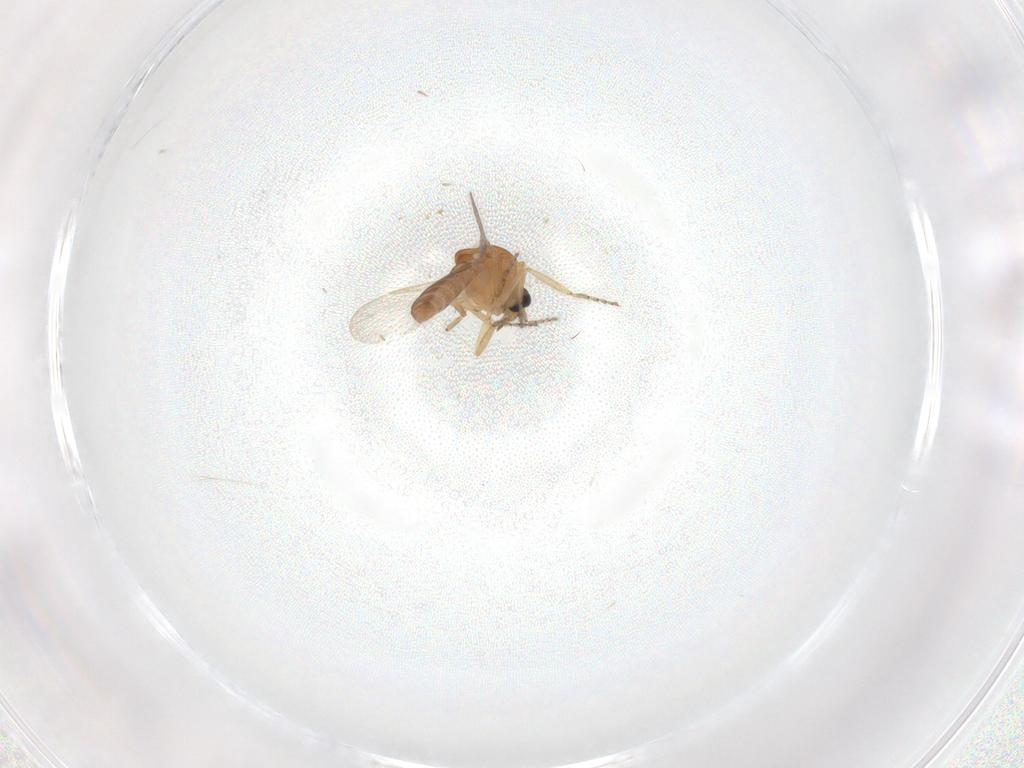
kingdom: Animalia
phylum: Arthropoda
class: Insecta
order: Diptera
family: Ceratopogonidae
